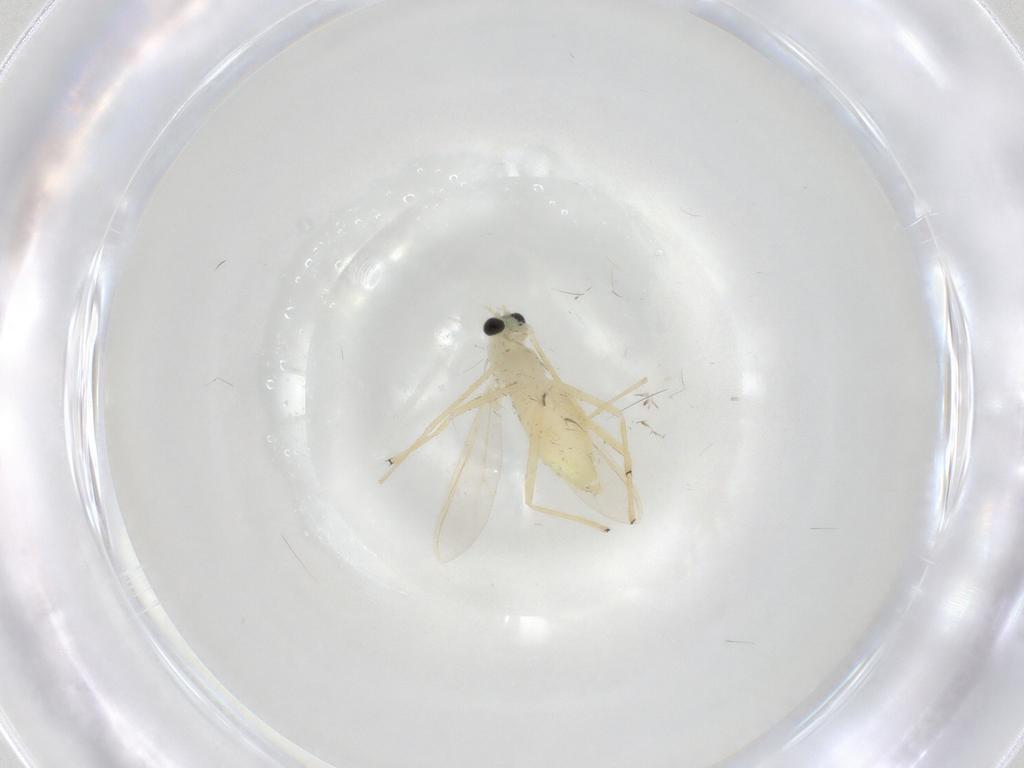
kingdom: Animalia
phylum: Arthropoda
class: Insecta
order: Diptera
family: Chironomidae
